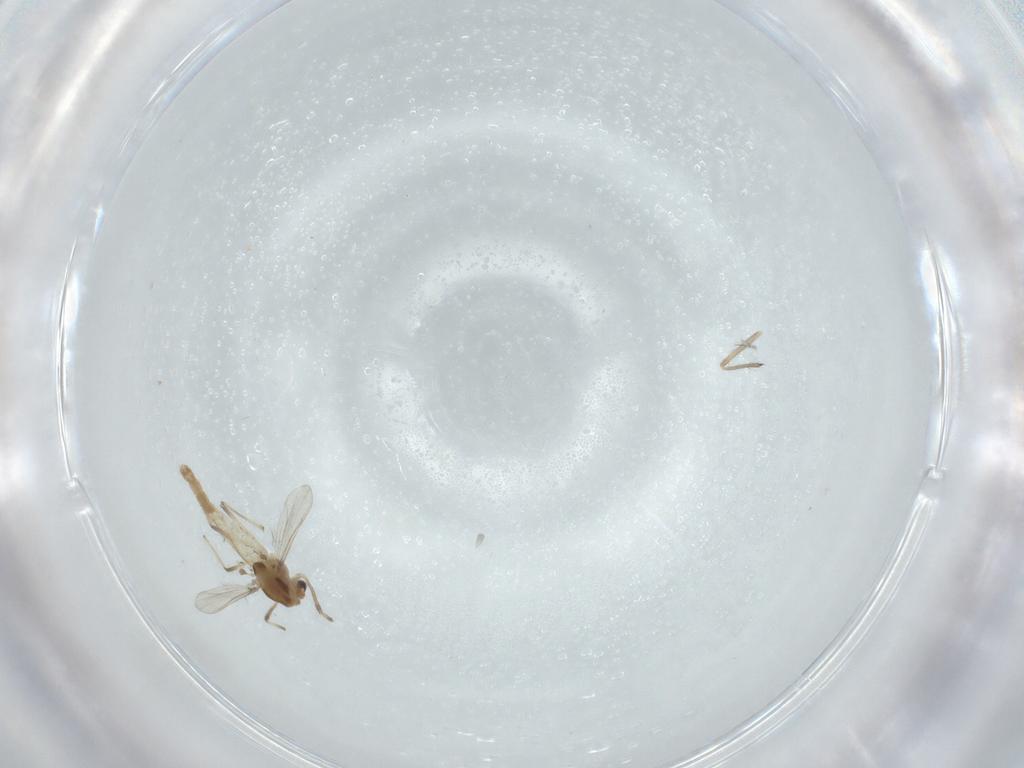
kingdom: Animalia
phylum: Arthropoda
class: Insecta
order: Diptera
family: Chironomidae
